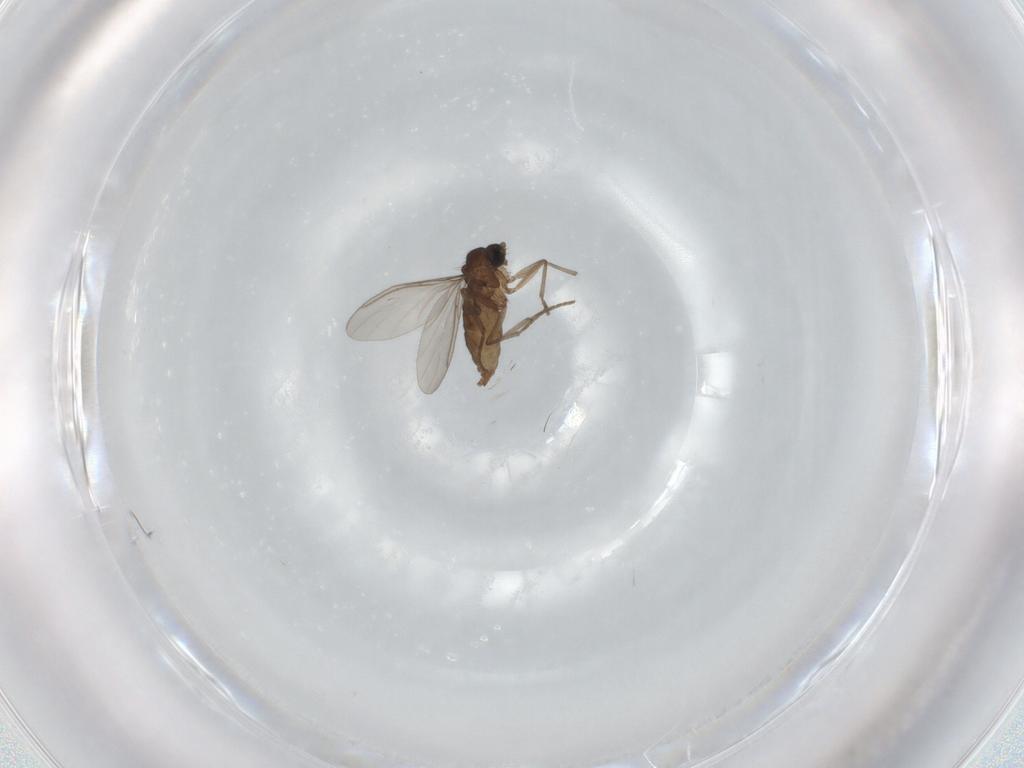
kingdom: Animalia
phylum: Arthropoda
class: Insecta
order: Diptera
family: Sciaridae
